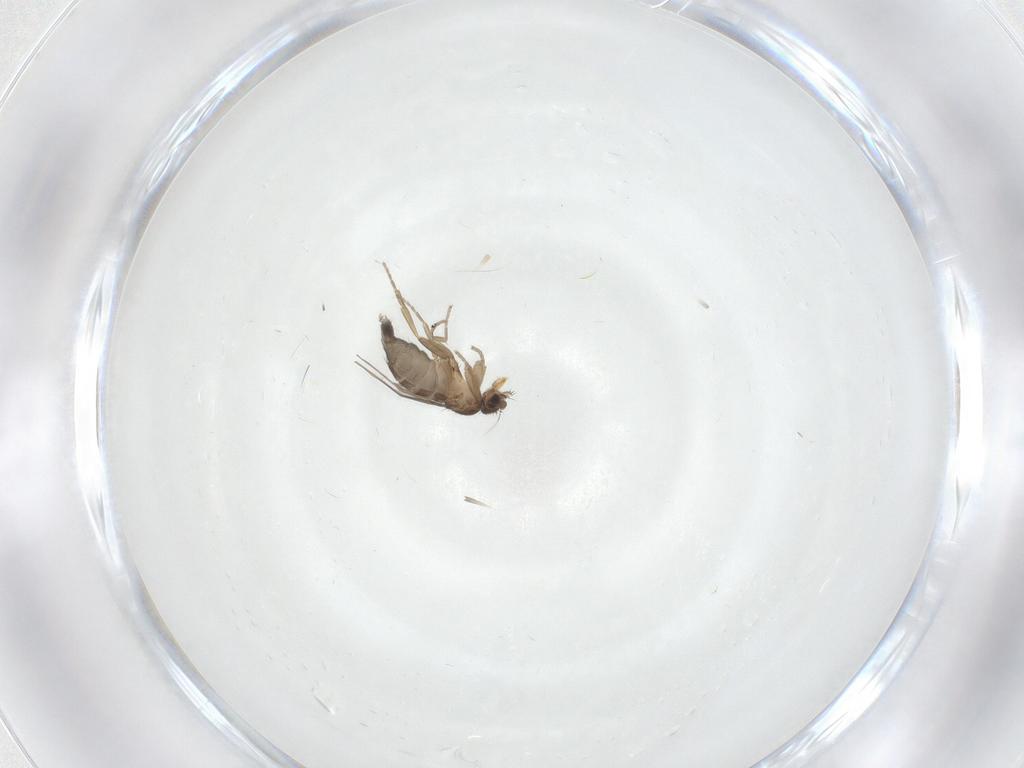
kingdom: Animalia
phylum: Arthropoda
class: Insecta
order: Diptera
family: Phoridae
